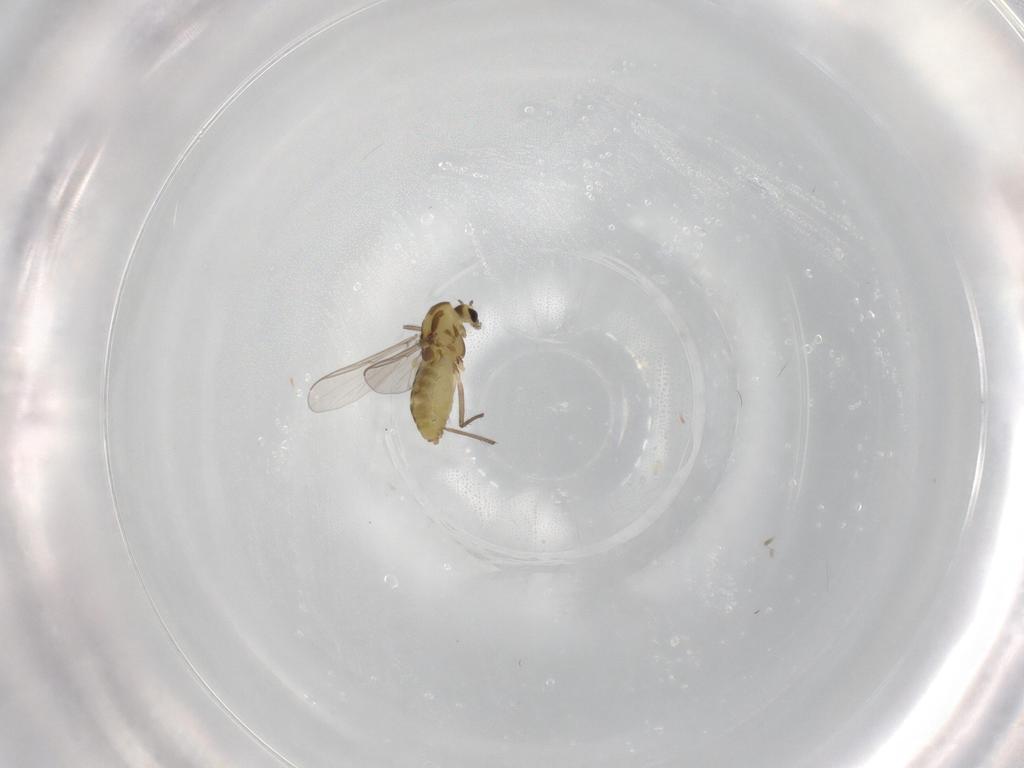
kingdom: Animalia
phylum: Arthropoda
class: Insecta
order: Diptera
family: Chironomidae
